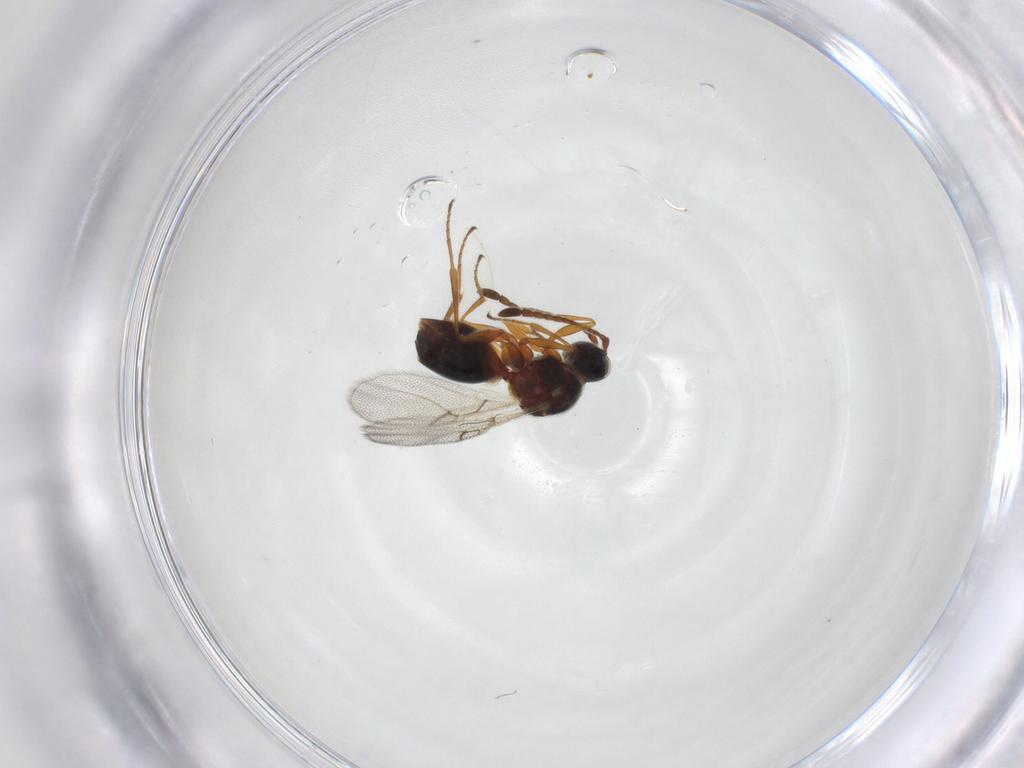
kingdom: Animalia
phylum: Arthropoda
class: Insecta
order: Hymenoptera
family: Figitidae
